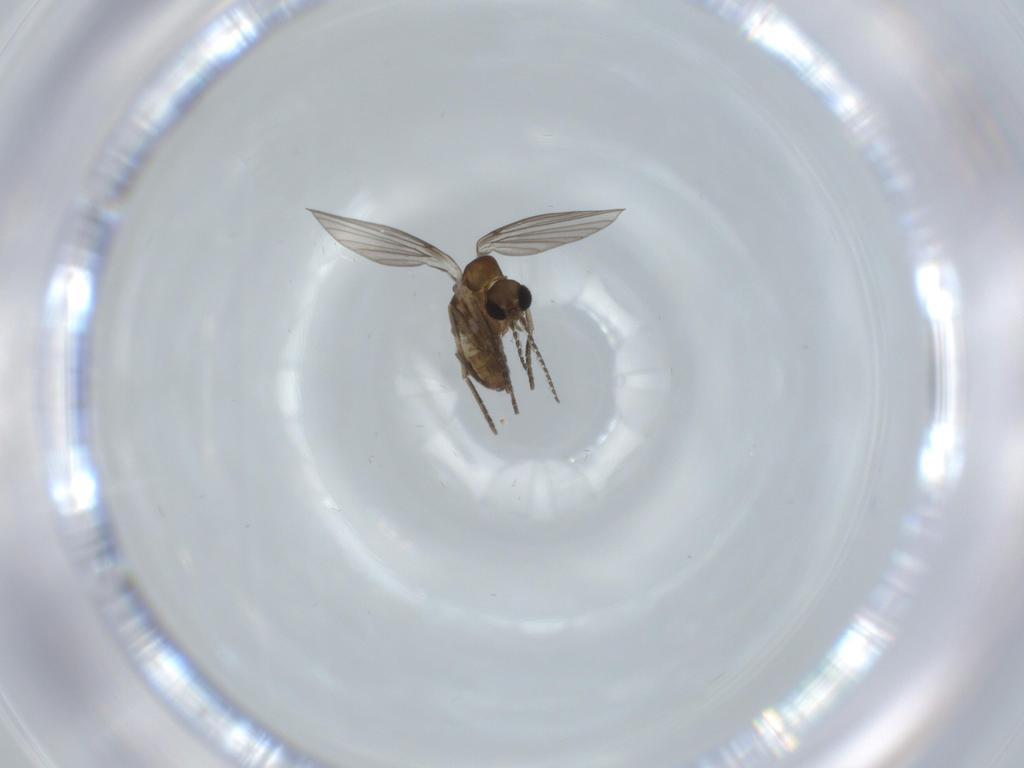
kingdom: Animalia
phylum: Arthropoda
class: Insecta
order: Diptera
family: Psychodidae
